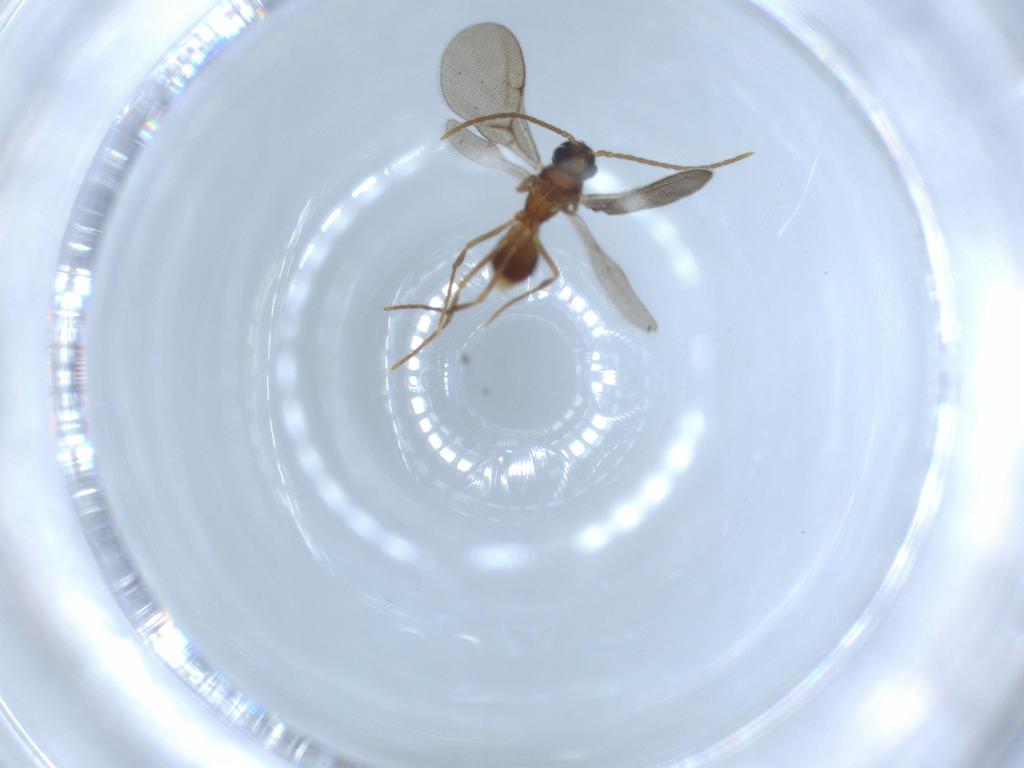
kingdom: Animalia
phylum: Arthropoda
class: Insecta
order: Hymenoptera
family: Formicidae
